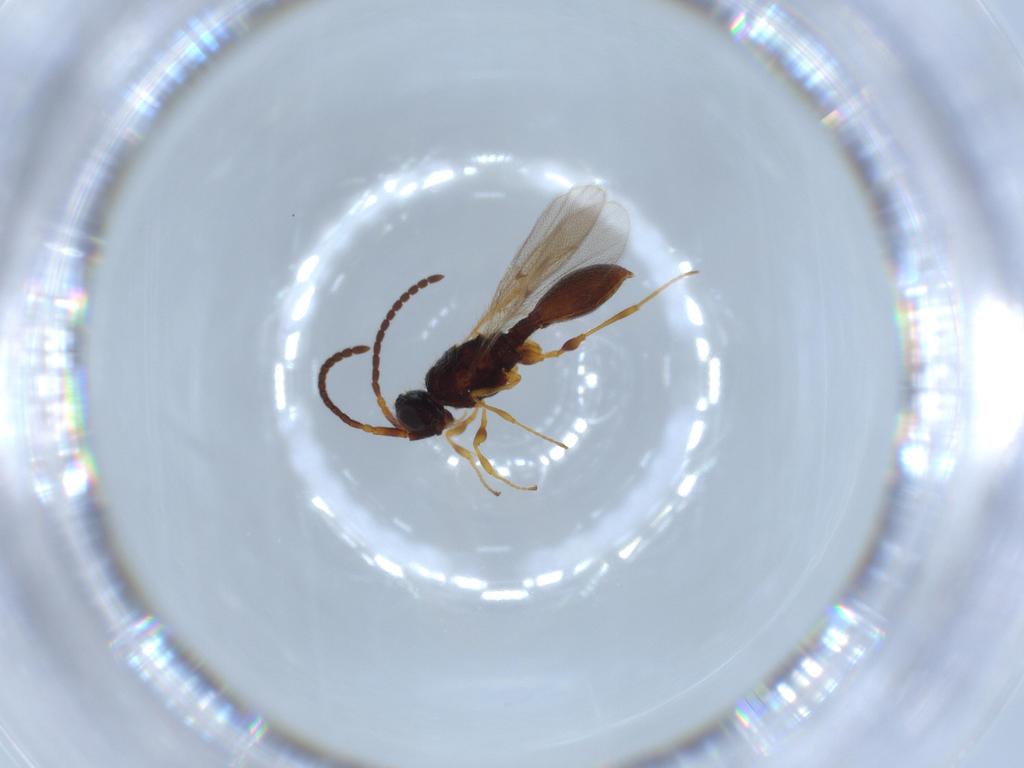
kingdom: Animalia
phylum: Arthropoda
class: Insecta
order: Hymenoptera
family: Diapriidae
